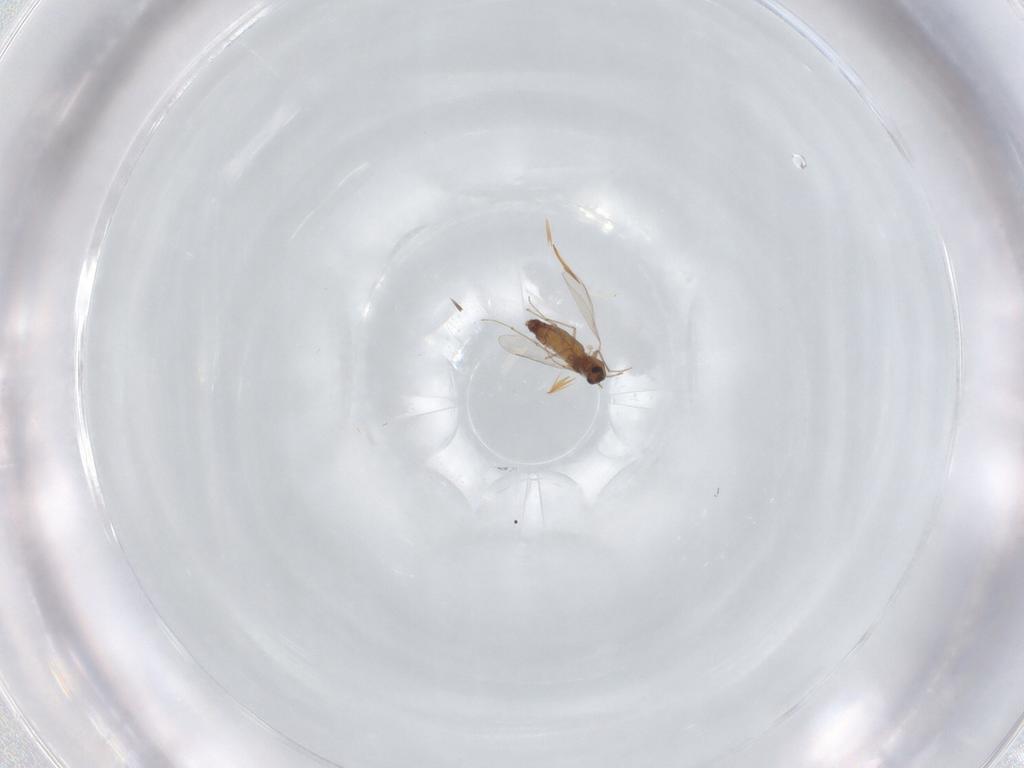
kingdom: Animalia
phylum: Arthropoda
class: Insecta
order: Diptera
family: Chironomidae
